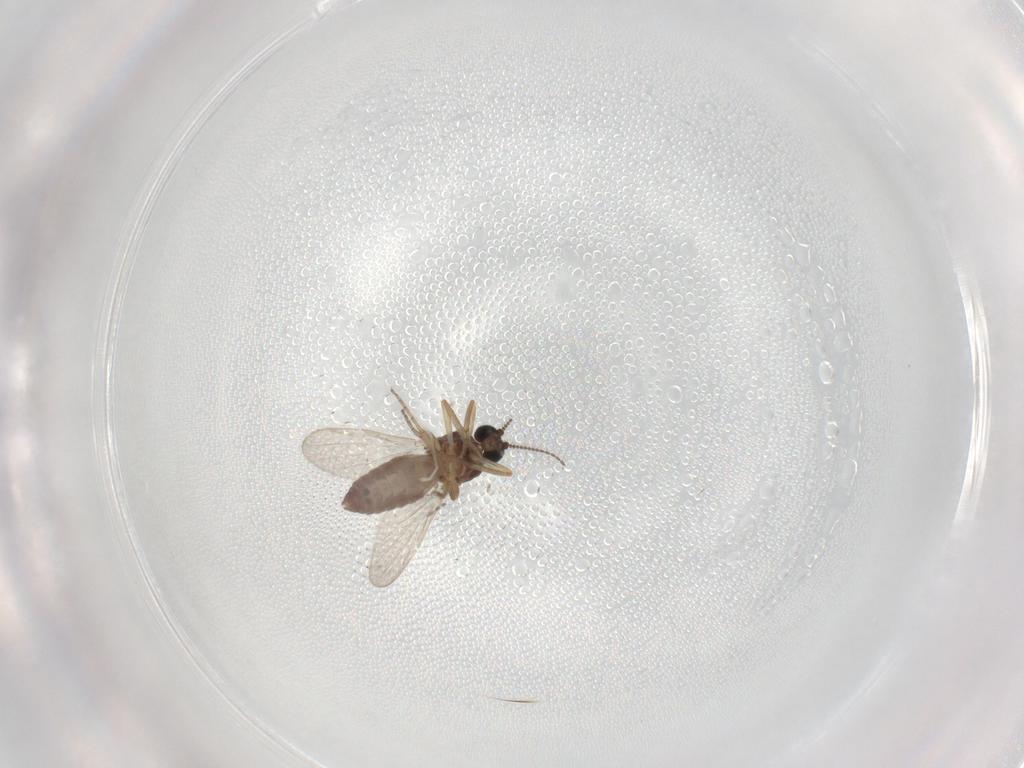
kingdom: Animalia
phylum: Arthropoda
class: Insecta
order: Diptera
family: Ceratopogonidae
